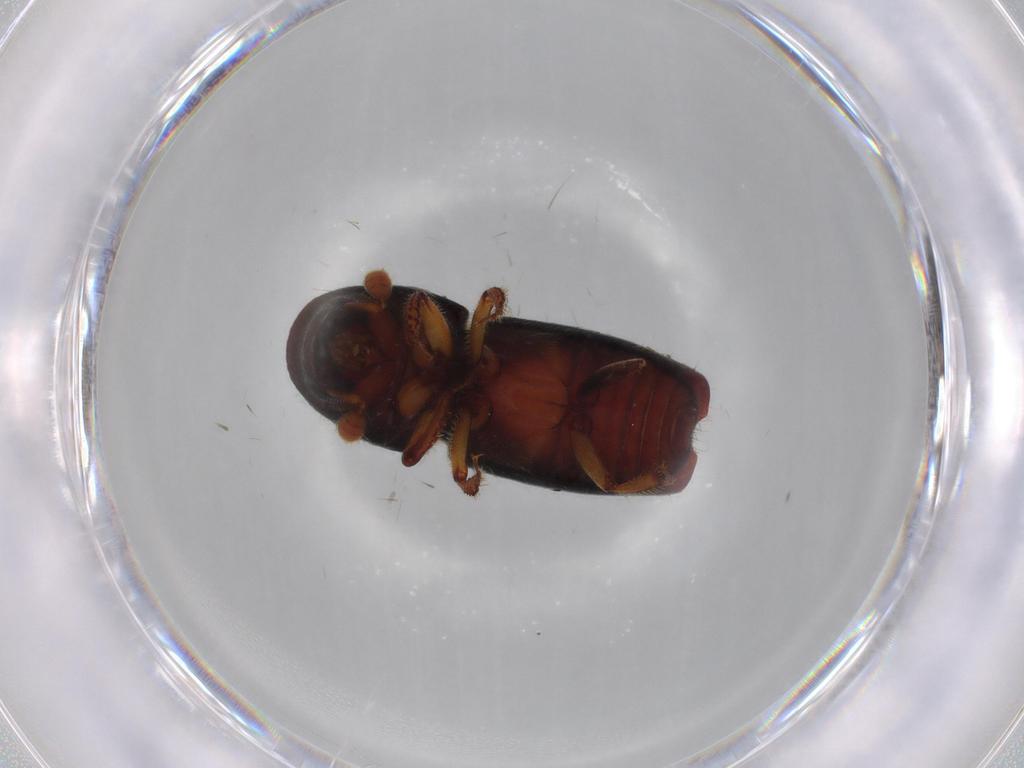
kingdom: Animalia
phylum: Arthropoda
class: Insecta
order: Coleoptera
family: Curculionidae
